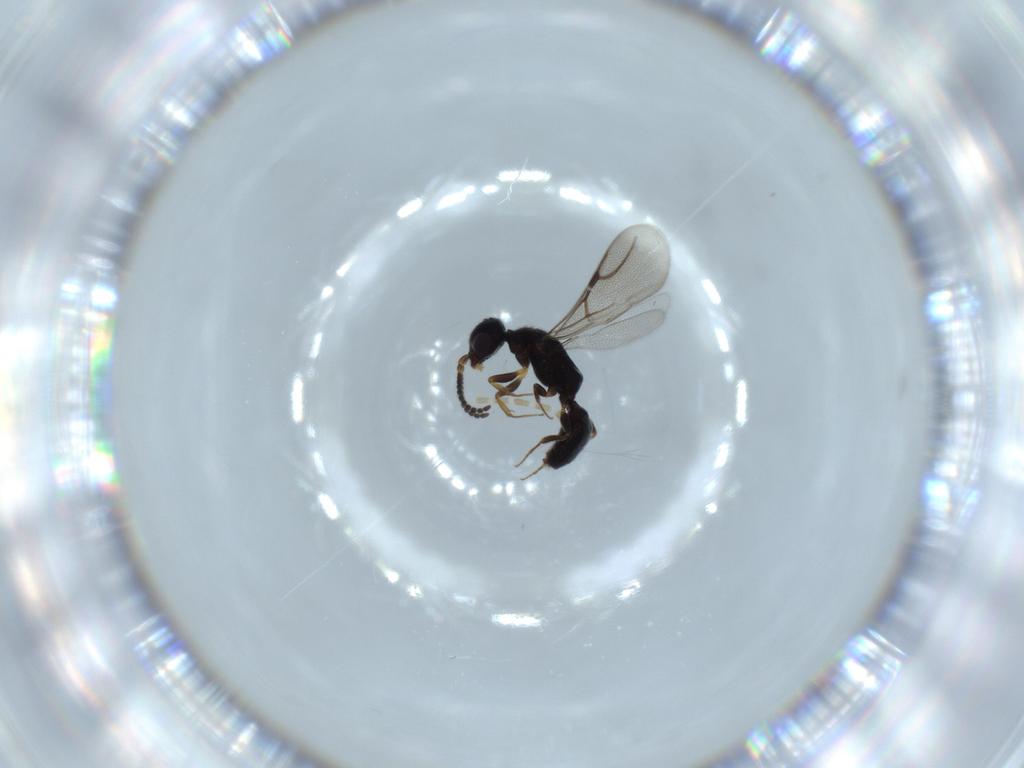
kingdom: Animalia
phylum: Arthropoda
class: Insecta
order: Hymenoptera
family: Bethylidae
